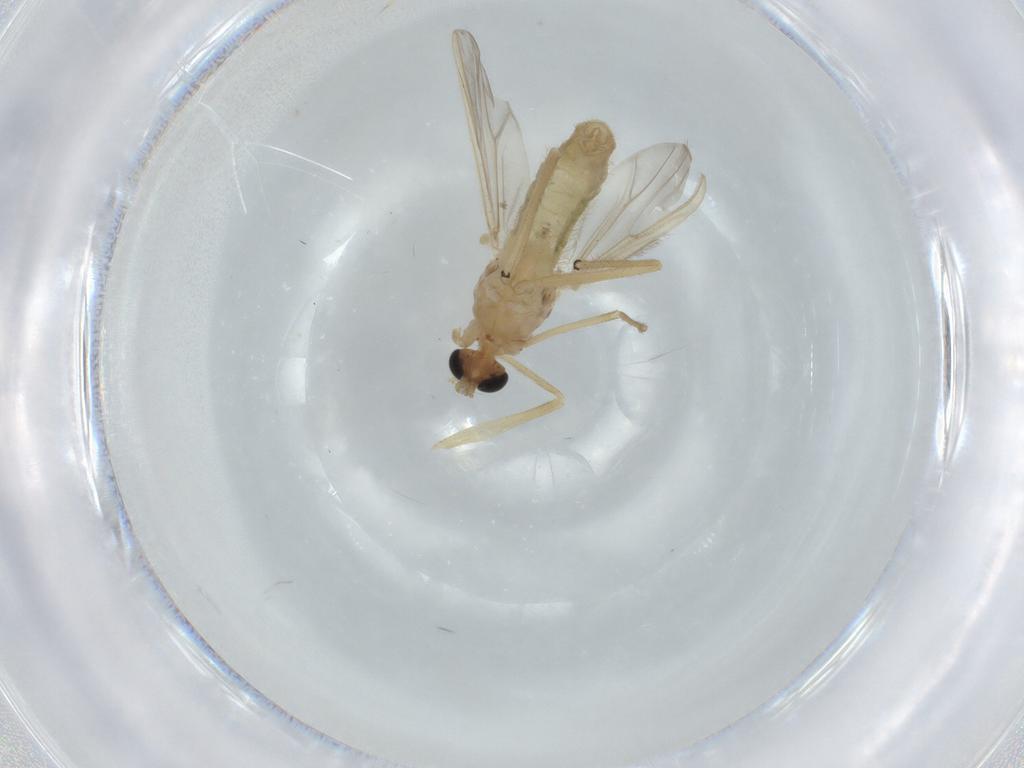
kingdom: Animalia
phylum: Arthropoda
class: Insecta
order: Diptera
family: Chironomidae
